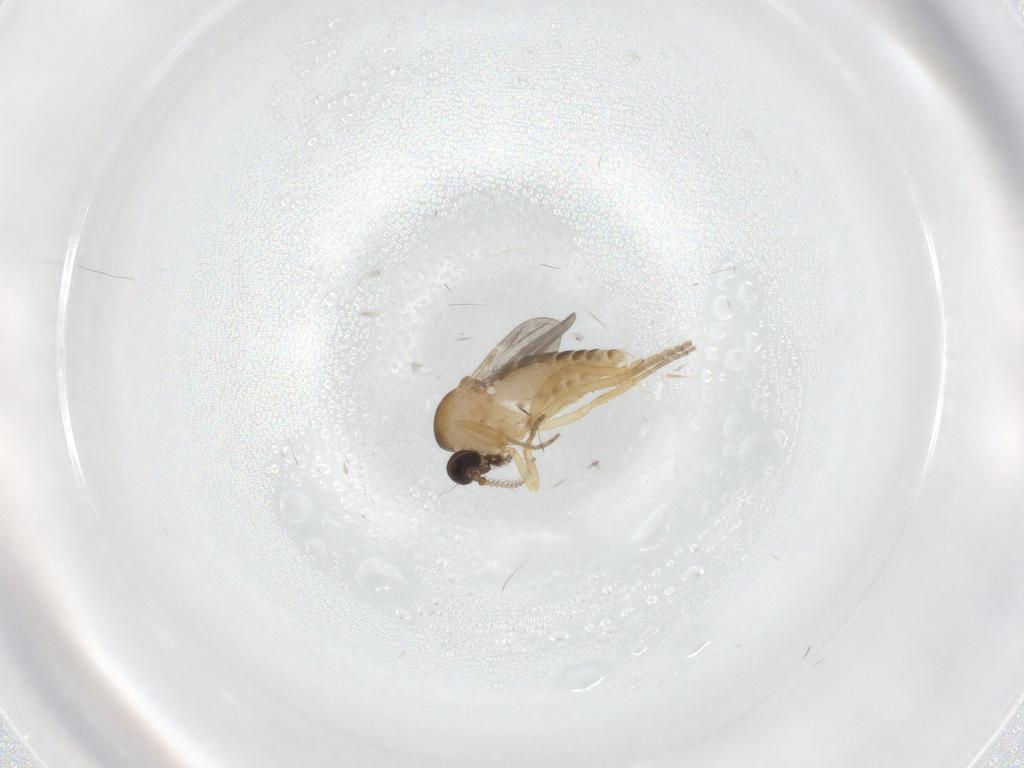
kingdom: Animalia
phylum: Arthropoda
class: Insecta
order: Diptera
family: Ceratopogonidae
